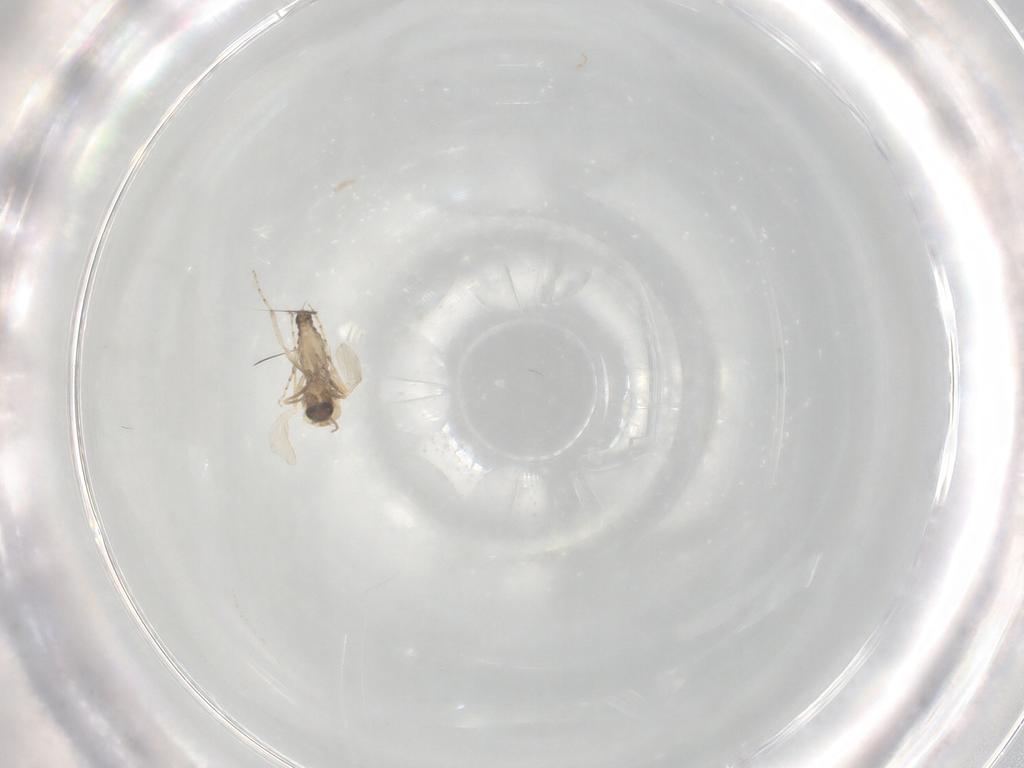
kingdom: Animalia
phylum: Arthropoda
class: Insecta
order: Diptera
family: Ceratopogonidae
